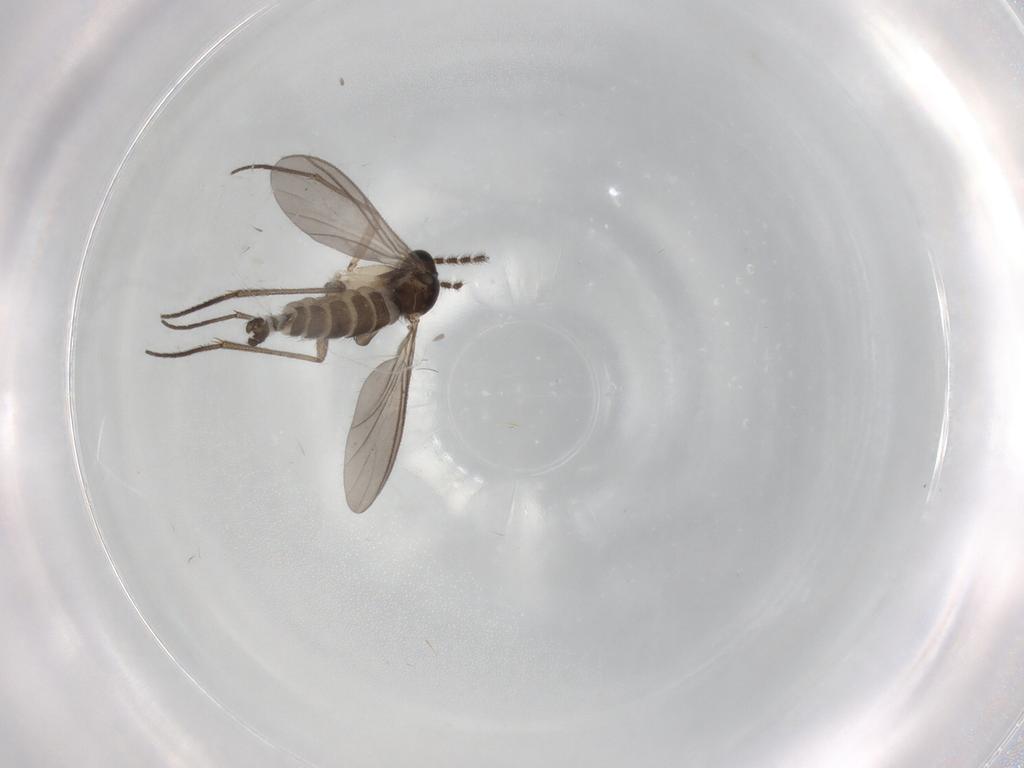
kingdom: Animalia
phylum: Arthropoda
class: Insecta
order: Diptera
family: Sciaridae
